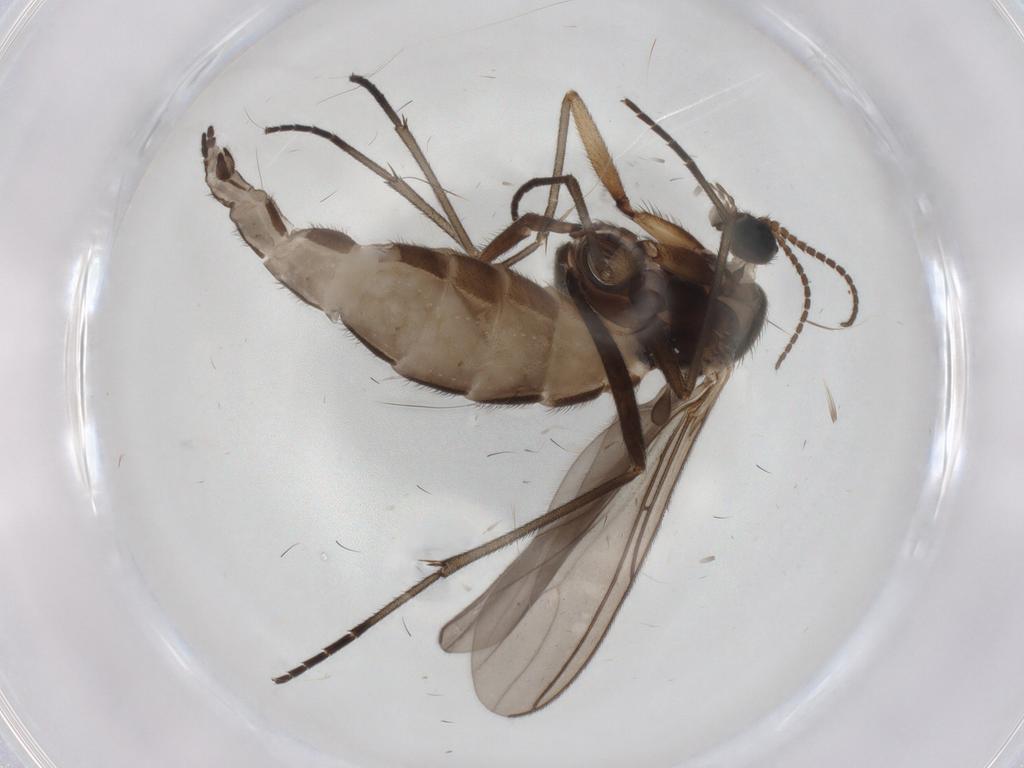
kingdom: Animalia
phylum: Arthropoda
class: Insecta
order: Diptera
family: Sciaridae
